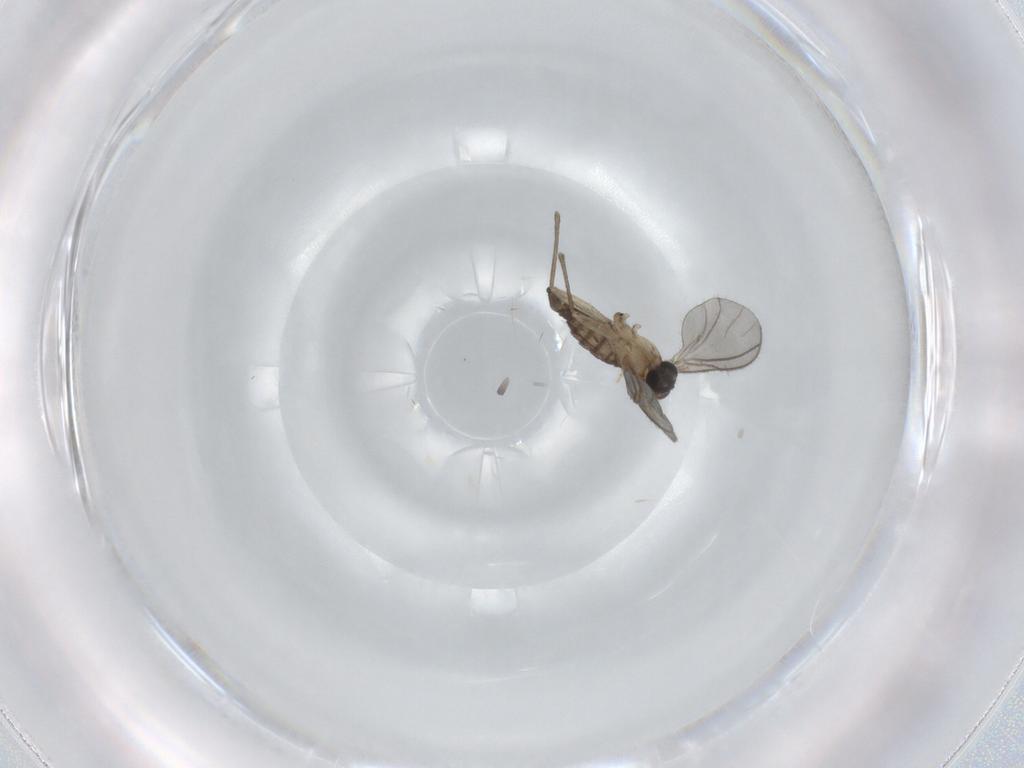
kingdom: Animalia
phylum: Arthropoda
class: Insecta
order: Diptera
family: Sciaridae
